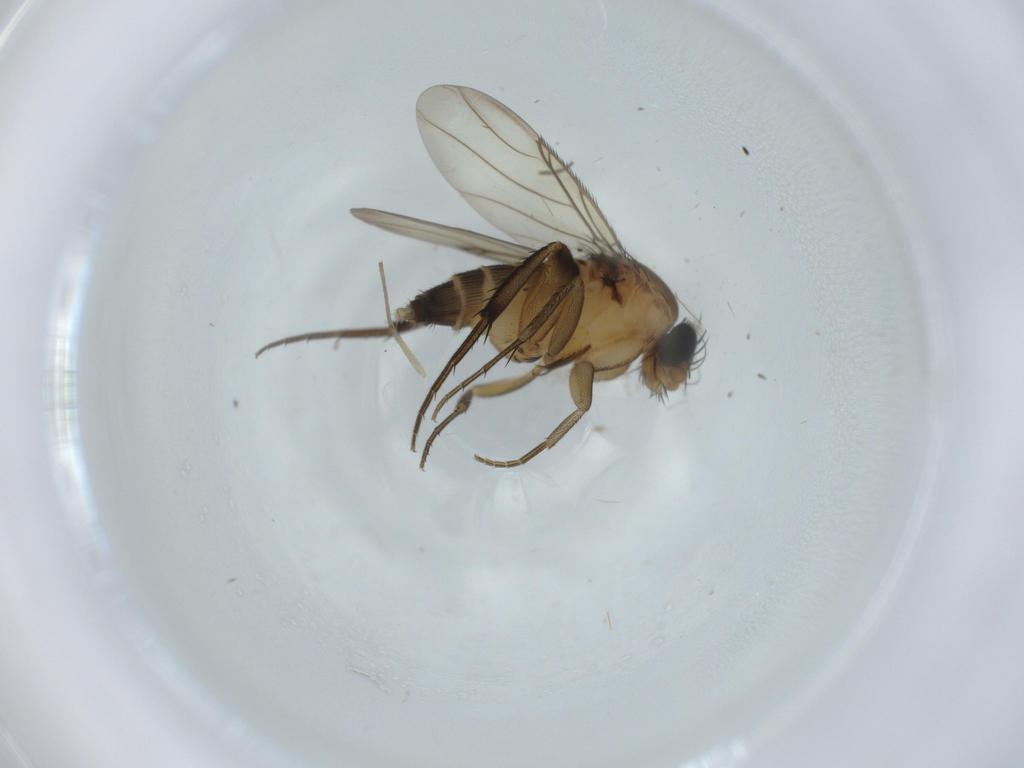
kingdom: Animalia
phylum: Arthropoda
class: Insecta
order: Diptera
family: Phoridae
